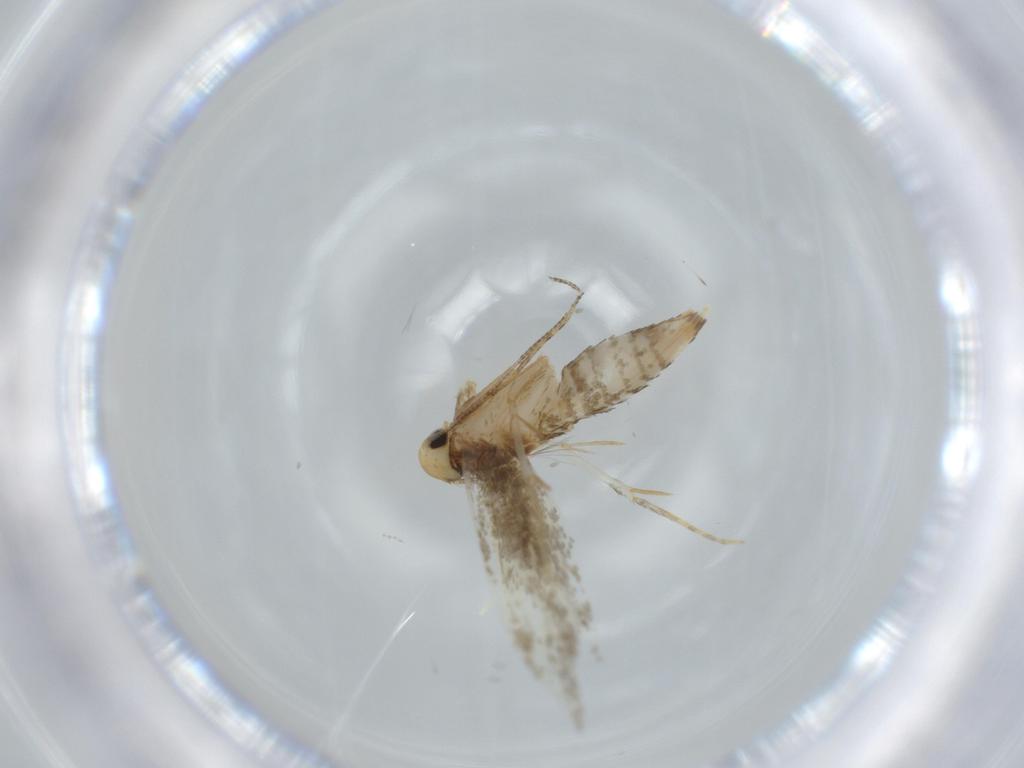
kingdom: Animalia
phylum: Arthropoda
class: Insecta
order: Lepidoptera
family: Tineidae
